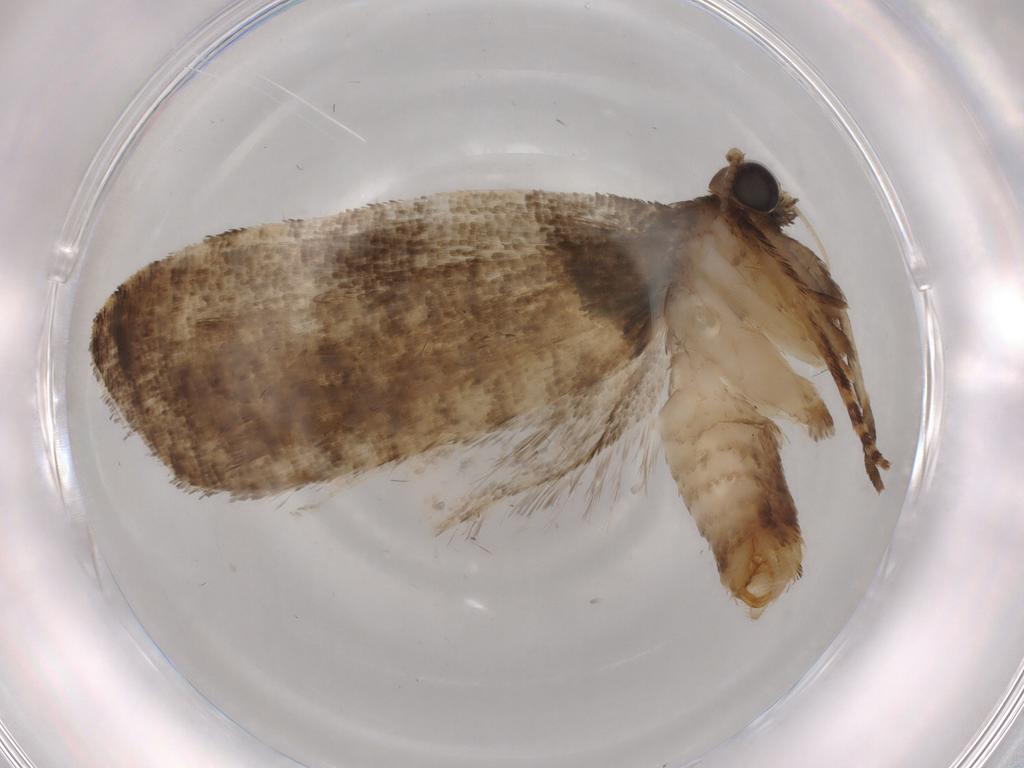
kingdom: Animalia
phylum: Arthropoda
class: Insecta
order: Lepidoptera
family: Tortricidae
